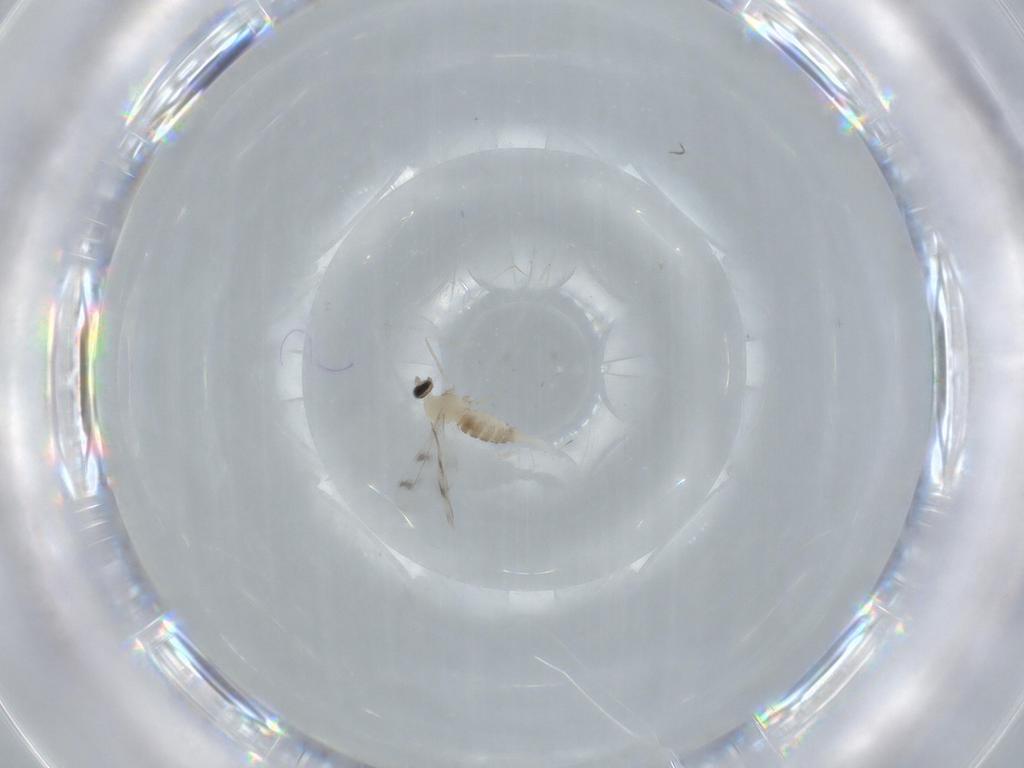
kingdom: Animalia
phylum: Arthropoda
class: Insecta
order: Diptera
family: Cecidomyiidae
